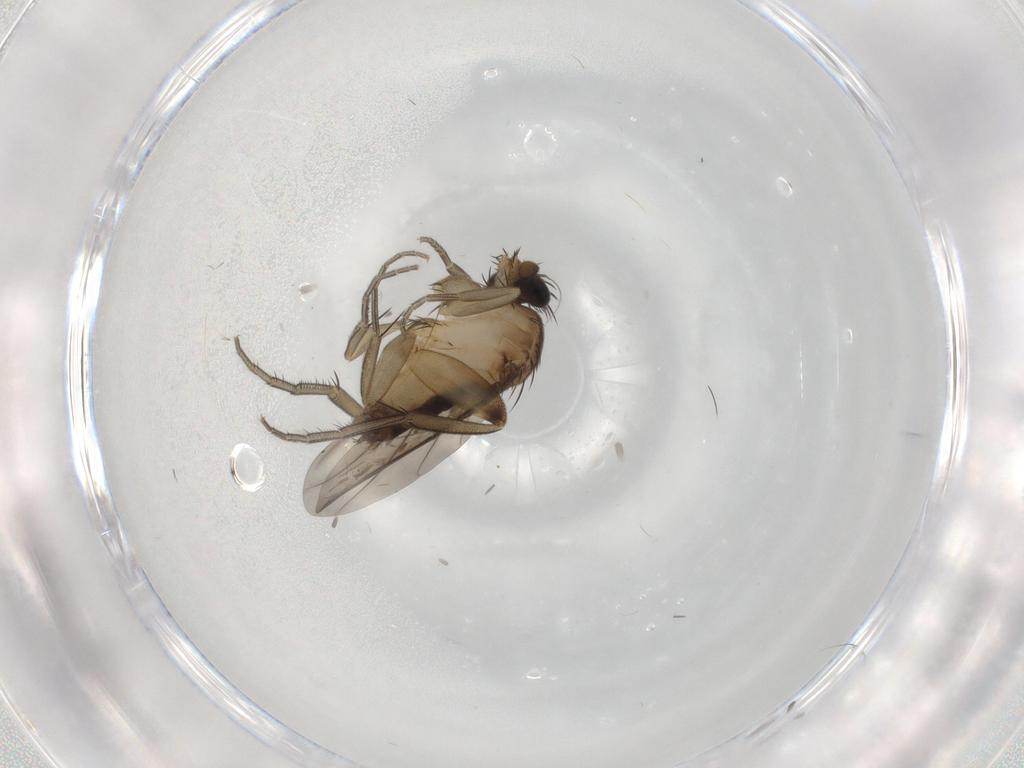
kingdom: Animalia
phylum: Arthropoda
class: Insecta
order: Diptera
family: Phoridae
